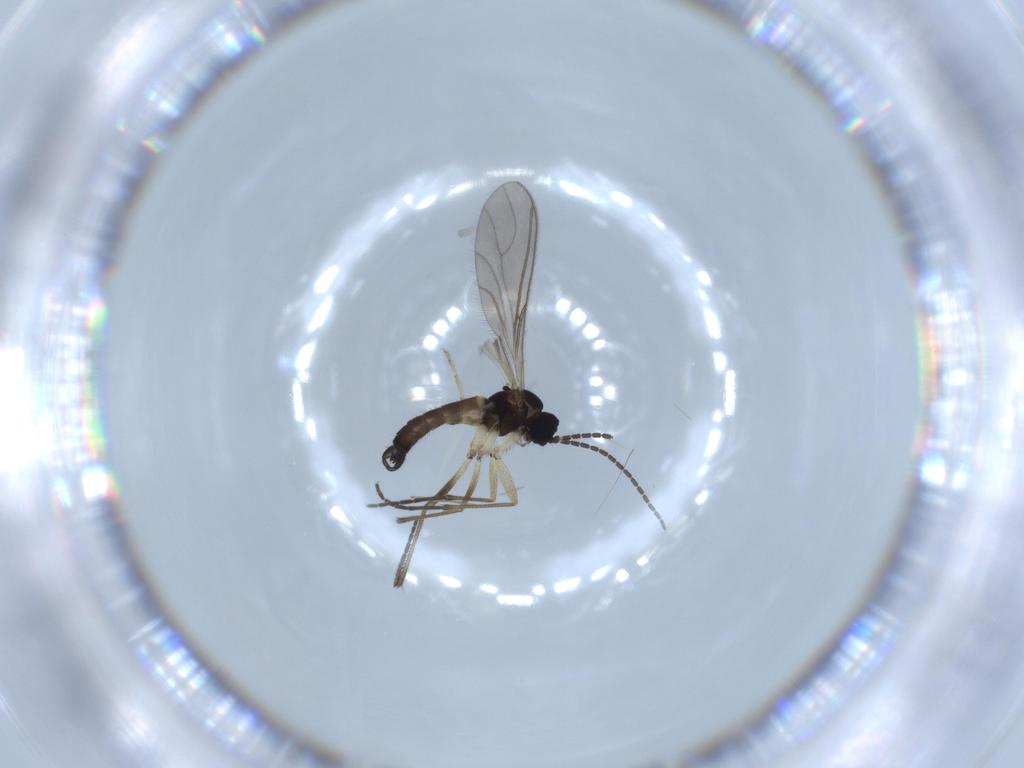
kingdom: Animalia
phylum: Arthropoda
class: Insecta
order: Diptera
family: Sciaridae
